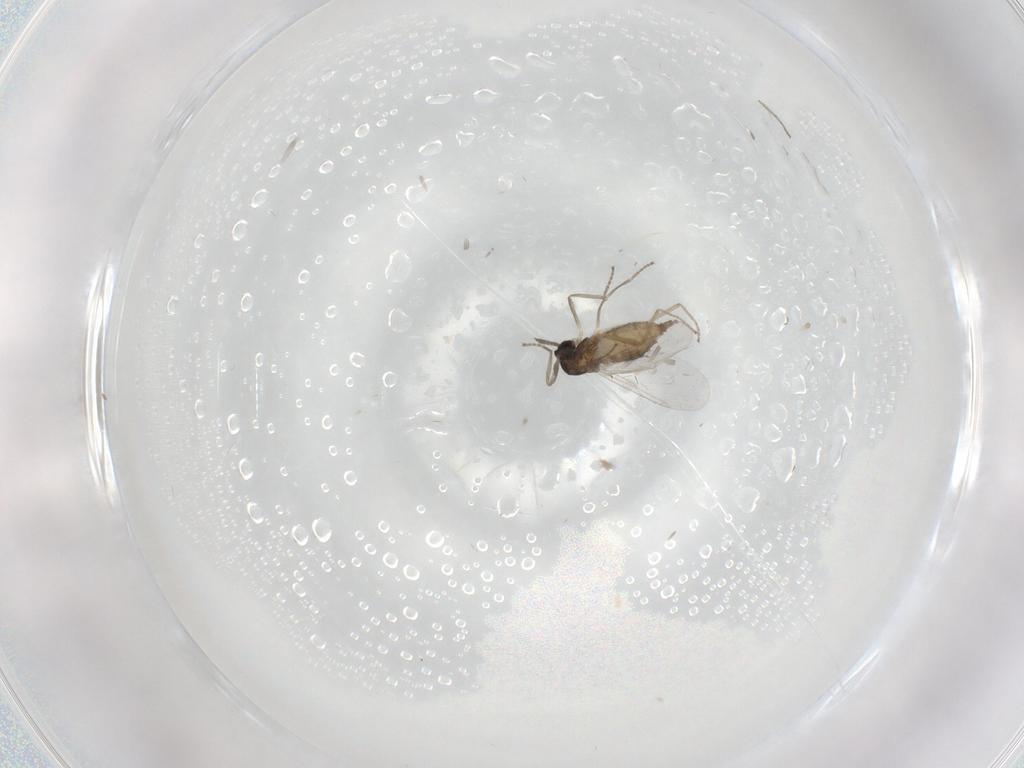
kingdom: Animalia
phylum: Arthropoda
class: Insecta
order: Diptera
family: Cecidomyiidae
